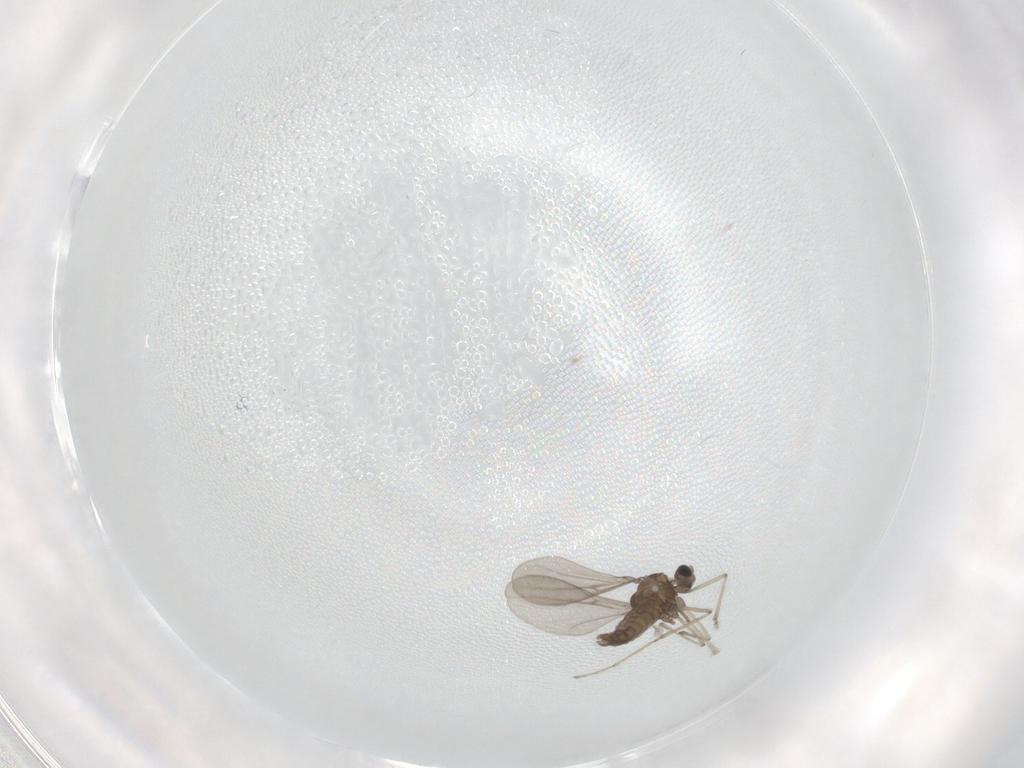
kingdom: Animalia
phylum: Arthropoda
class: Insecta
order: Diptera
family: Cecidomyiidae
